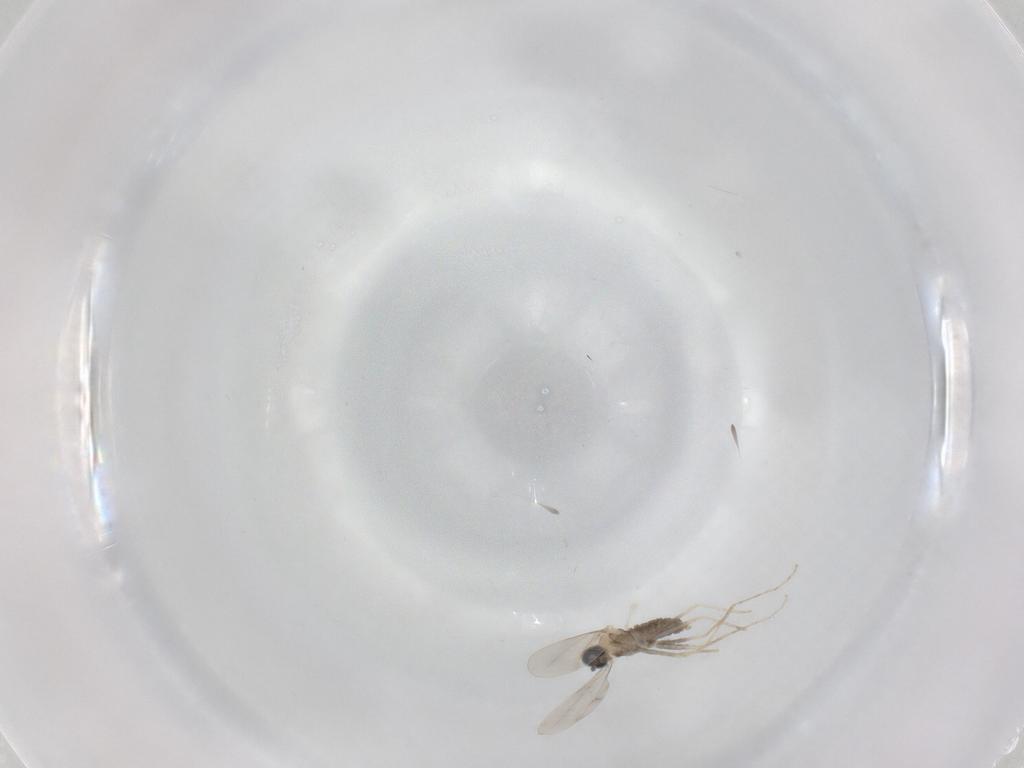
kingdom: Animalia
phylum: Arthropoda
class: Insecta
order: Diptera
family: Cecidomyiidae
